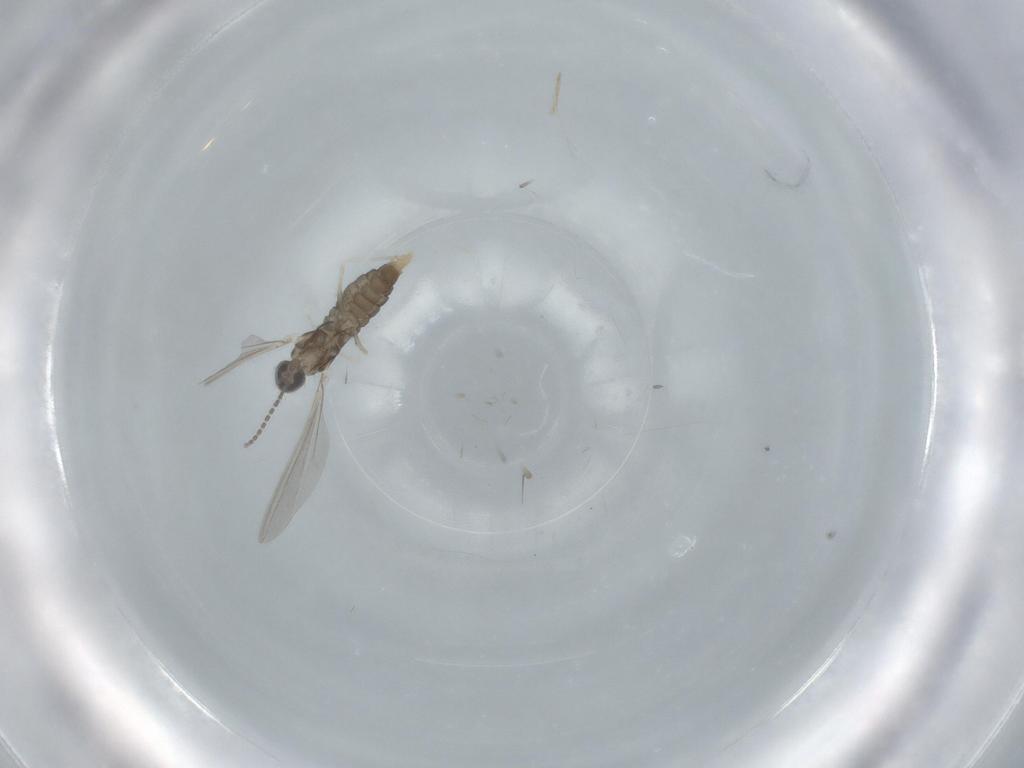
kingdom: Animalia
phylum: Arthropoda
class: Insecta
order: Diptera
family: Cecidomyiidae
